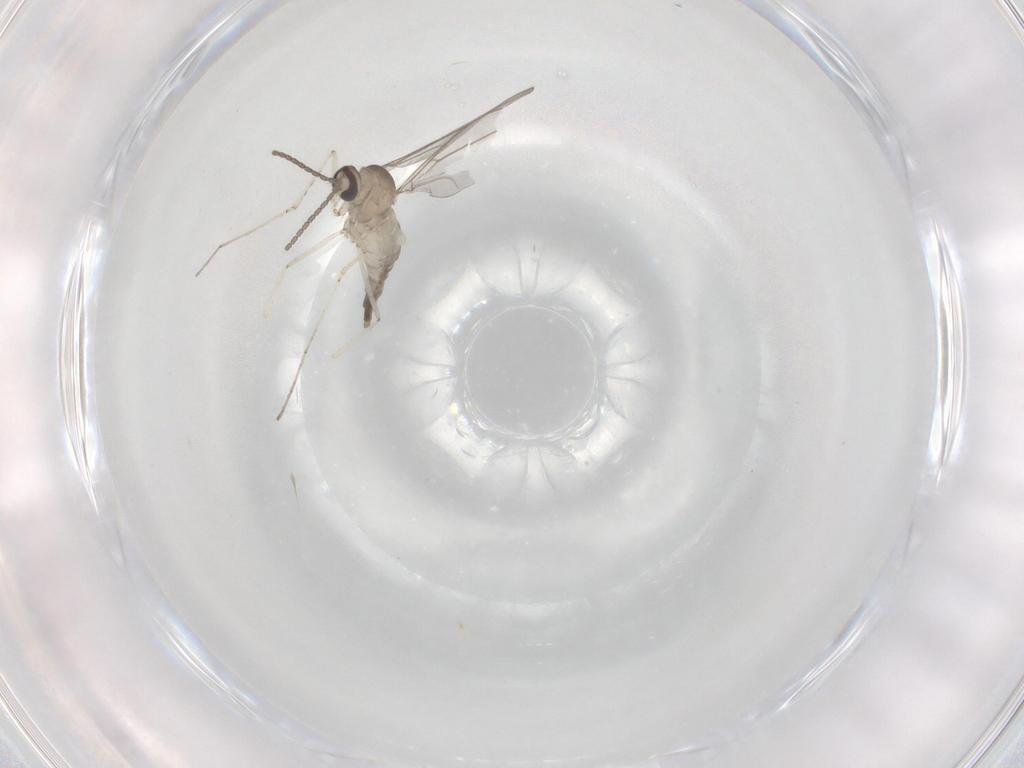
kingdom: Animalia
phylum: Arthropoda
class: Insecta
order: Diptera
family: Cecidomyiidae
